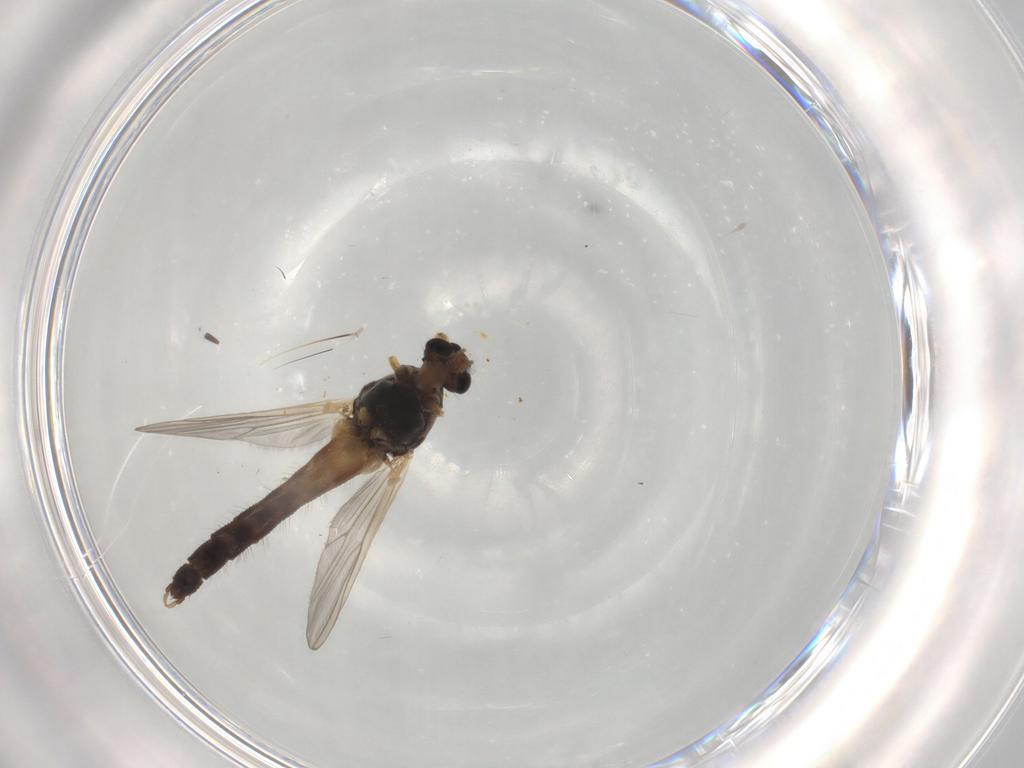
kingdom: Animalia
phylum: Arthropoda
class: Insecta
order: Diptera
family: Chironomidae
